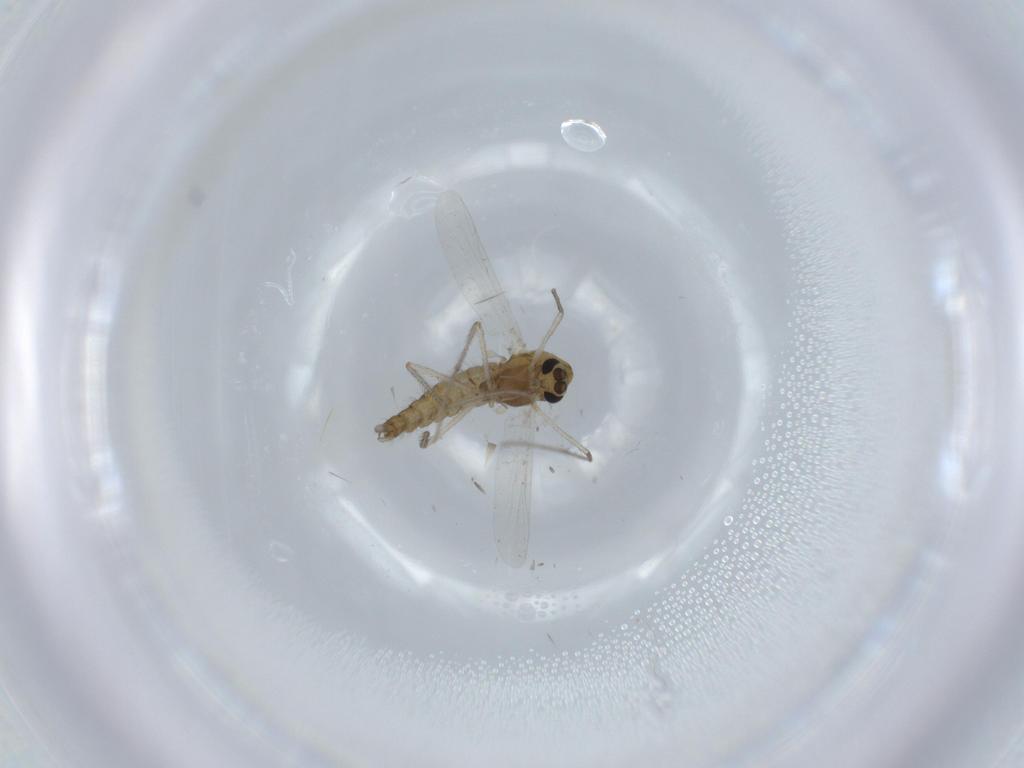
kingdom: Animalia
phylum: Arthropoda
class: Insecta
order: Diptera
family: Chironomidae
